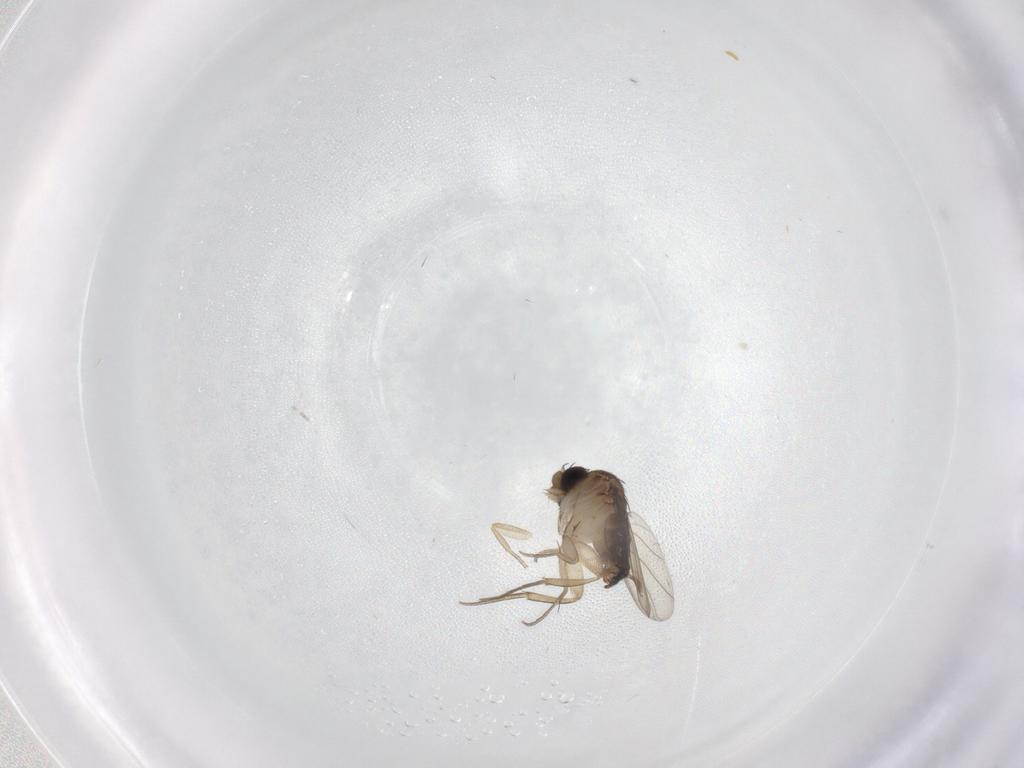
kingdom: Animalia
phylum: Arthropoda
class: Insecta
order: Diptera
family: Cecidomyiidae
